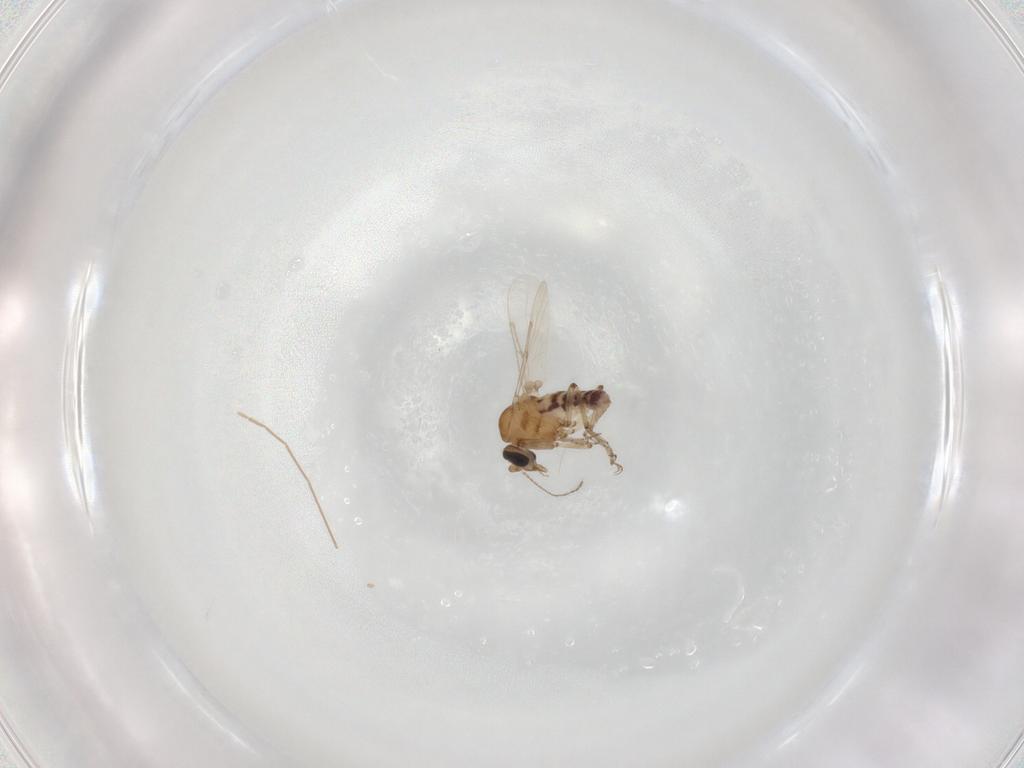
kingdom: Animalia
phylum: Arthropoda
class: Insecta
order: Diptera
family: Ceratopogonidae
